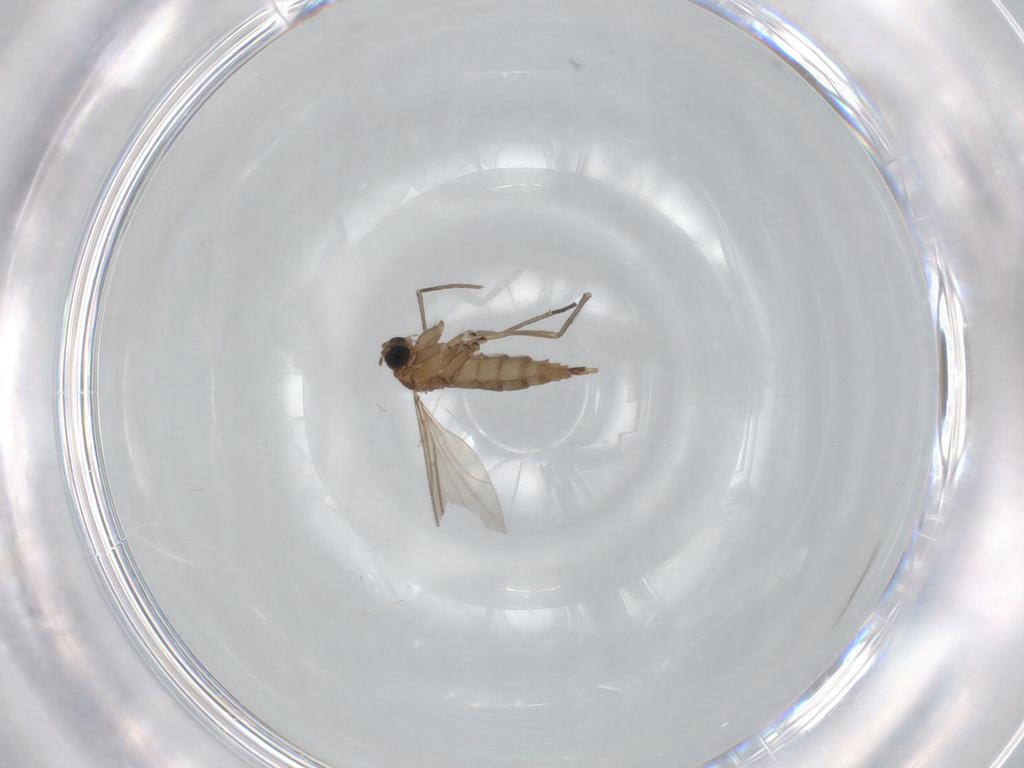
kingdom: Animalia
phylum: Arthropoda
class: Insecta
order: Diptera
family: Sciaridae
